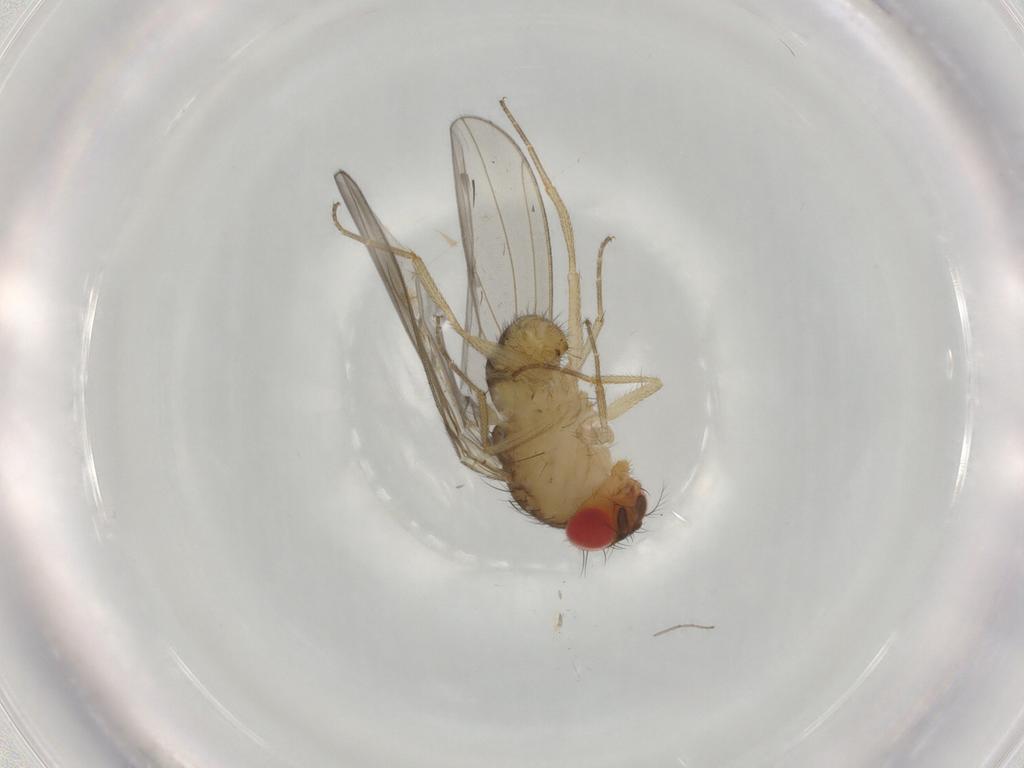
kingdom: Animalia
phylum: Arthropoda
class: Insecta
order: Diptera
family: Drosophilidae
